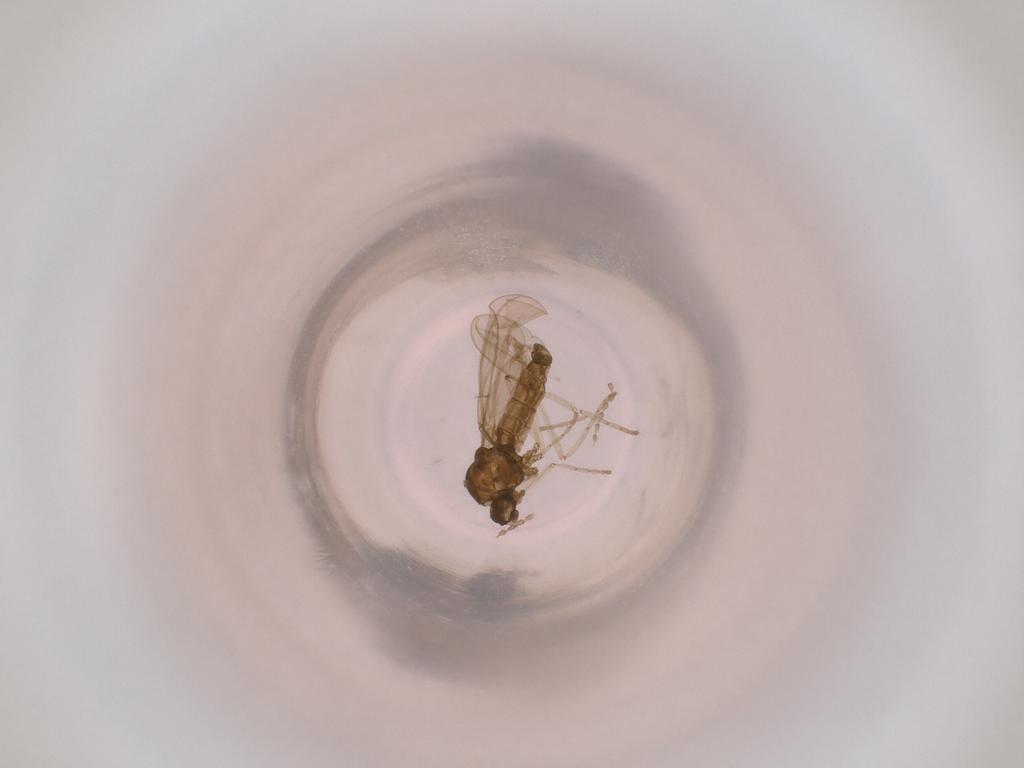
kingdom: Animalia
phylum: Arthropoda
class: Insecta
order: Diptera
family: Cecidomyiidae
